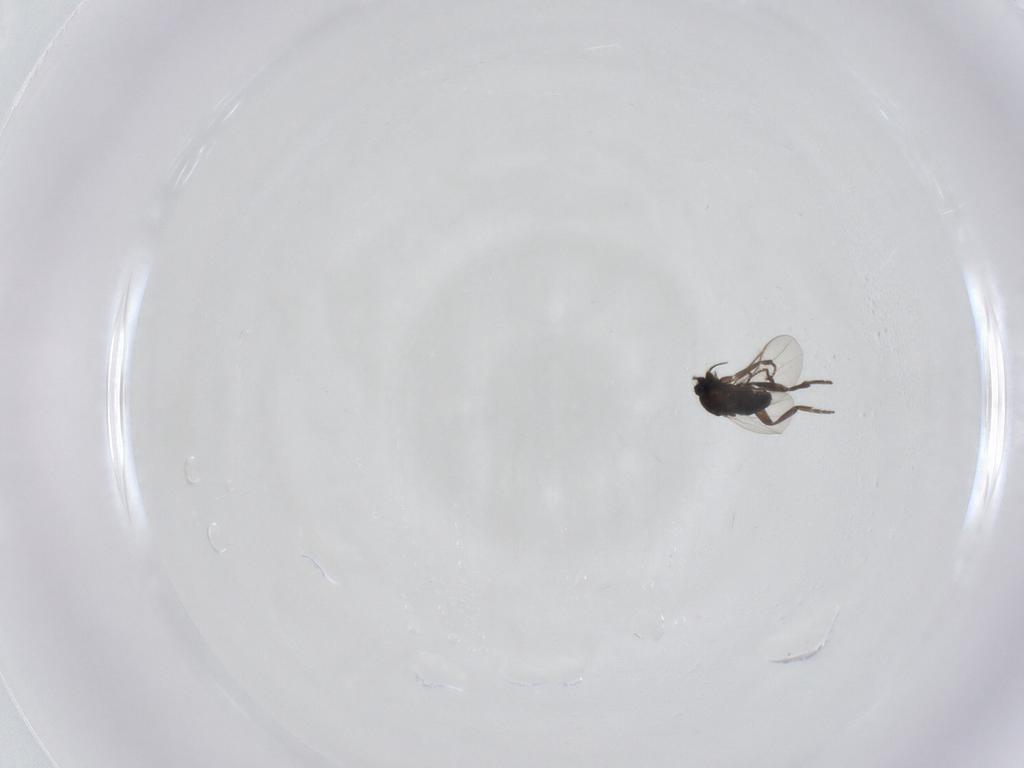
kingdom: Animalia
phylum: Arthropoda
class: Insecta
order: Diptera
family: Phoridae
